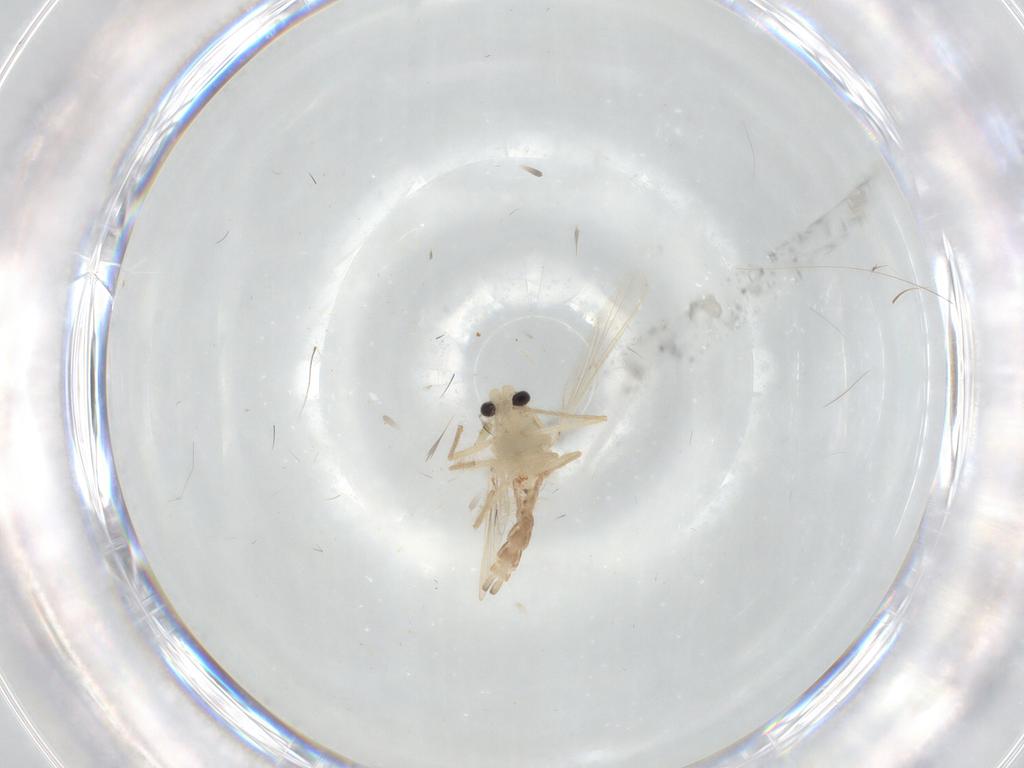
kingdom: Animalia
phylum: Arthropoda
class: Insecta
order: Diptera
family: Chironomidae
